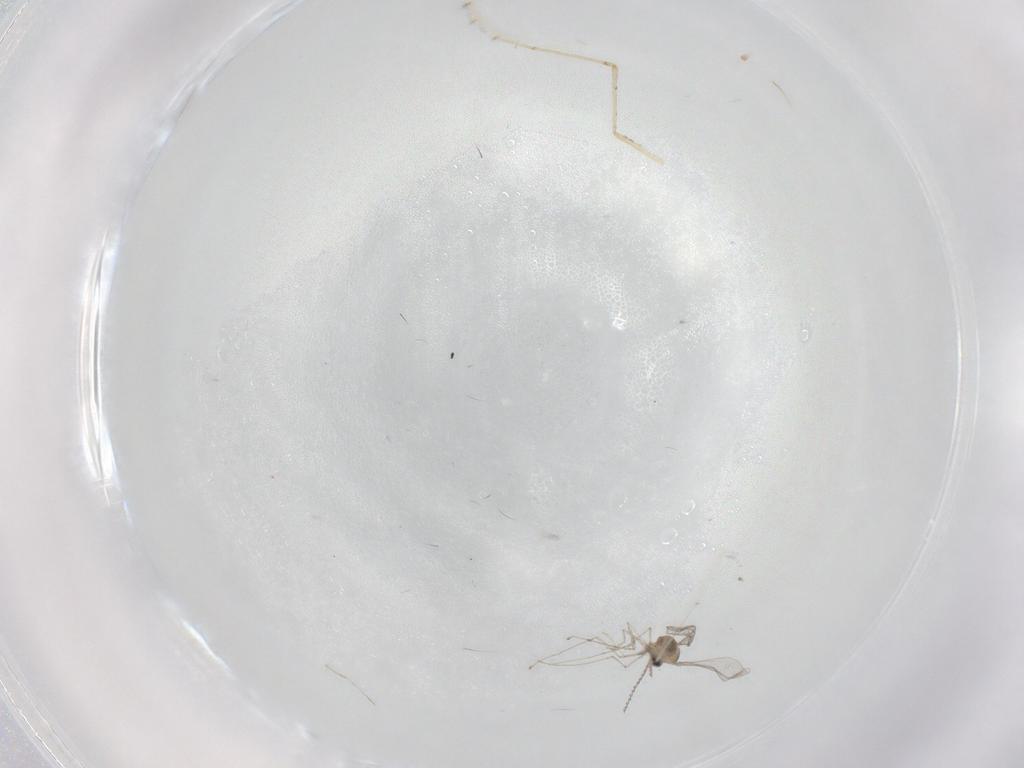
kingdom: Animalia
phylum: Arthropoda
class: Insecta
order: Diptera
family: Cecidomyiidae
